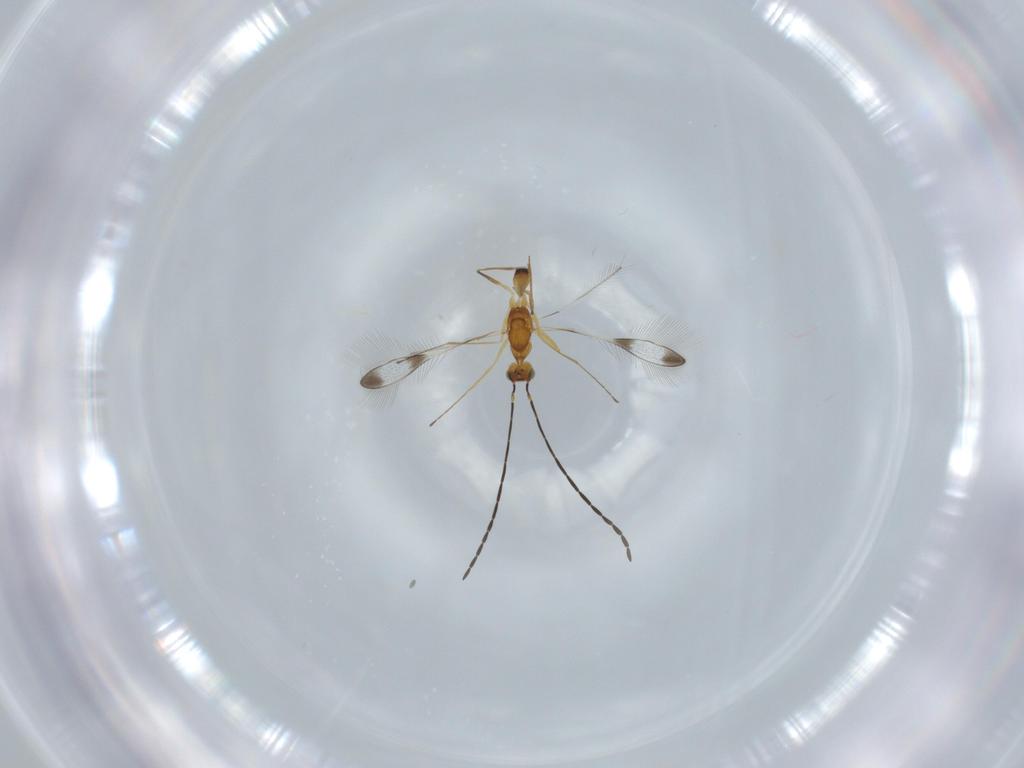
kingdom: Animalia
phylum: Arthropoda
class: Insecta
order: Hymenoptera
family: Mymaridae
